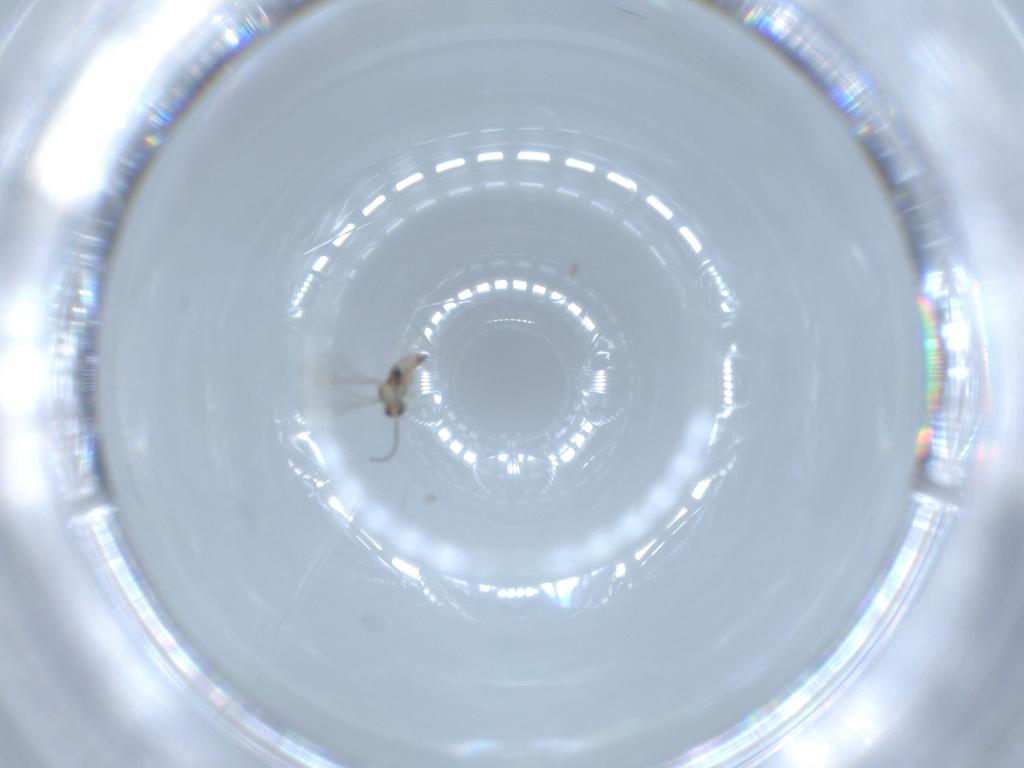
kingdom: Animalia
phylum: Arthropoda
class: Insecta
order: Diptera
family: Cecidomyiidae
